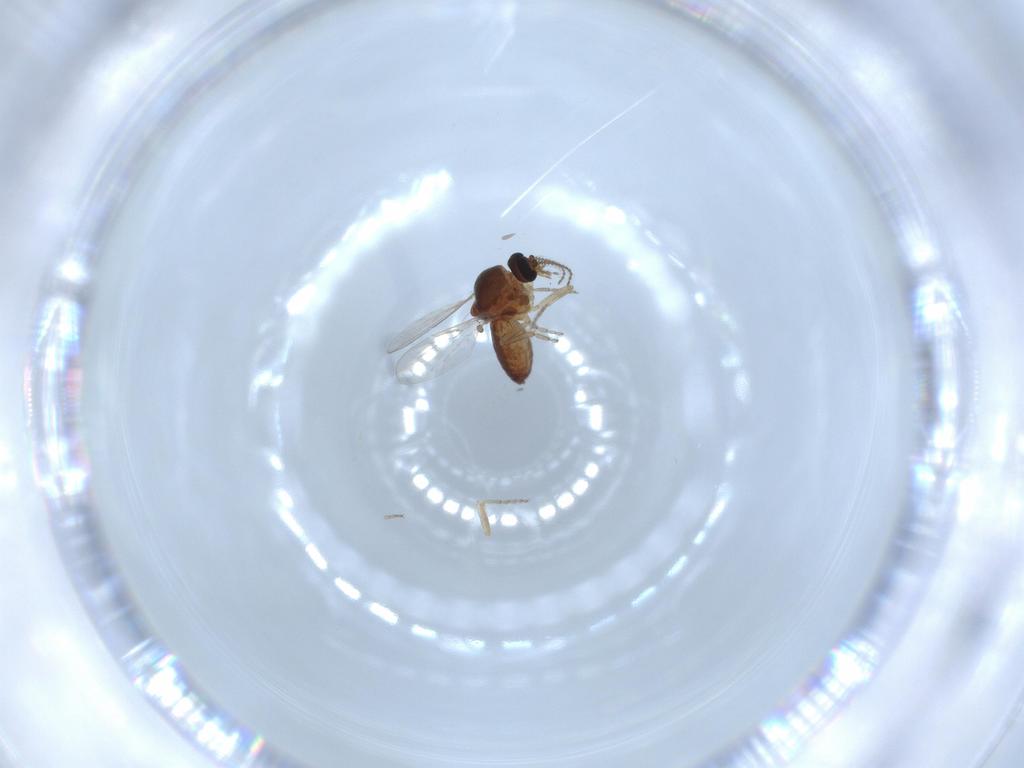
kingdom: Animalia
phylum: Arthropoda
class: Insecta
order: Diptera
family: Ceratopogonidae
